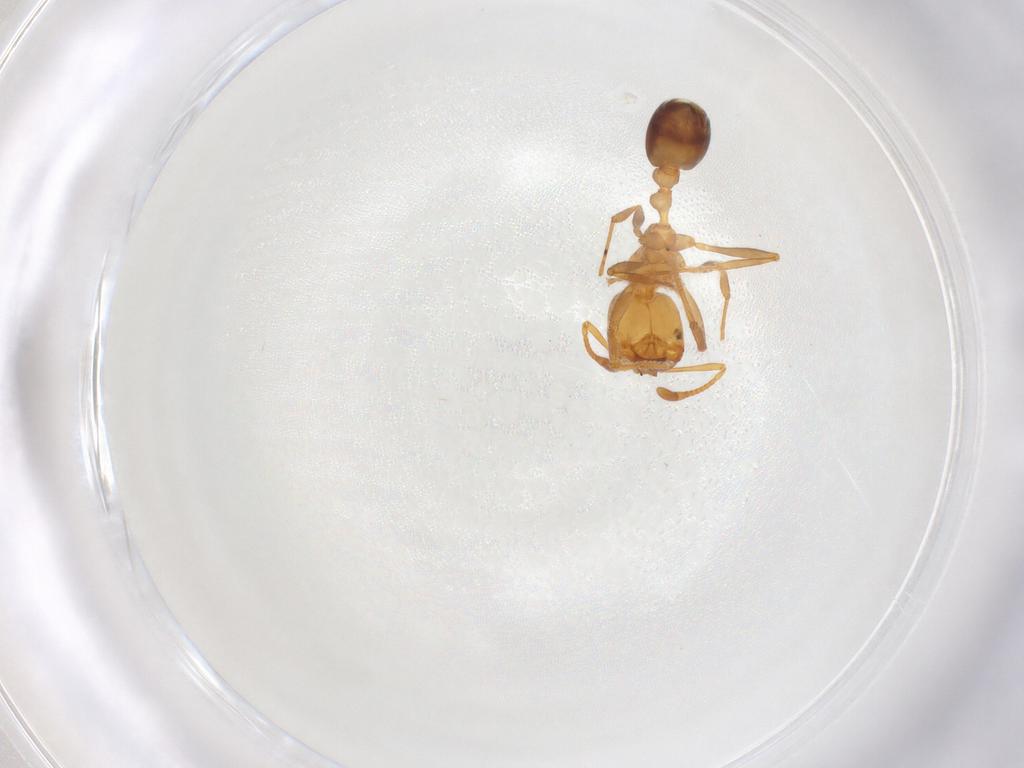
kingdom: Animalia
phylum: Arthropoda
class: Insecta
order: Hymenoptera
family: Formicidae
